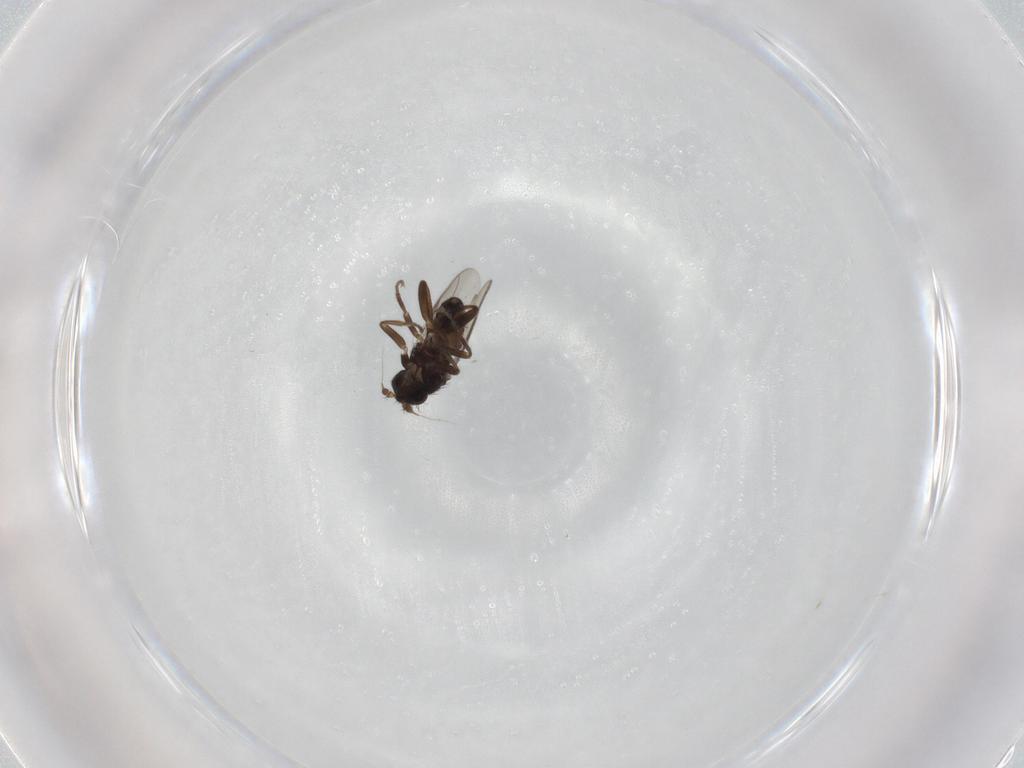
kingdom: Animalia
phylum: Arthropoda
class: Insecta
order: Diptera
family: Sphaeroceridae
